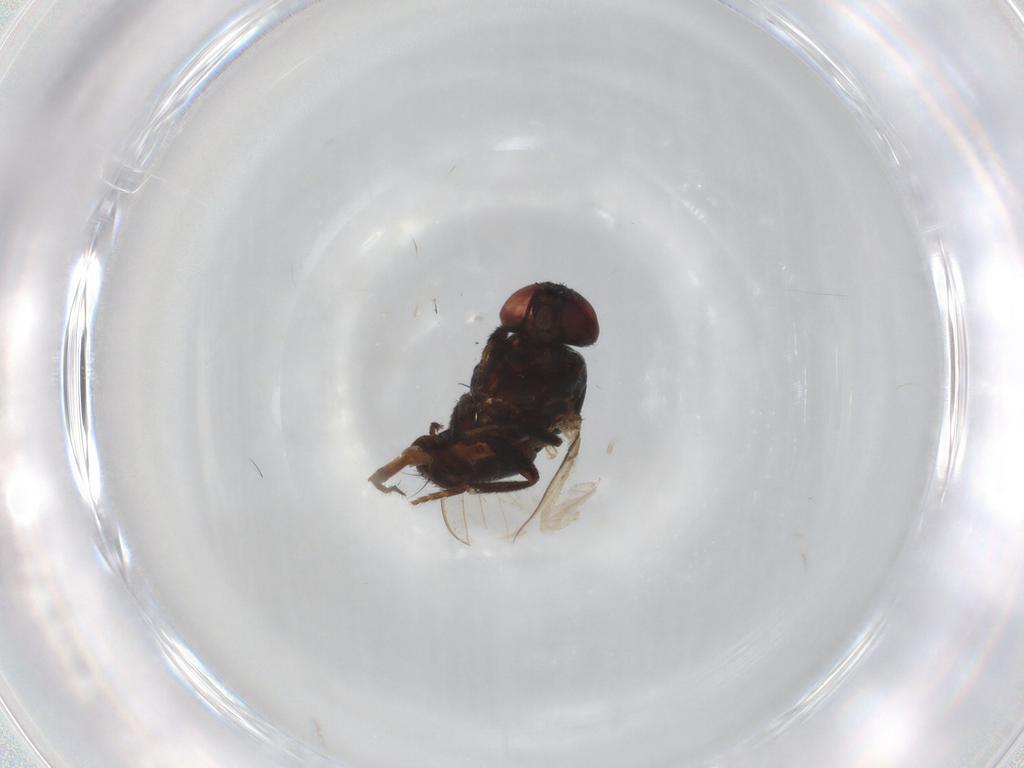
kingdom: Animalia
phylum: Arthropoda
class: Insecta
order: Diptera
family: Syrphidae
